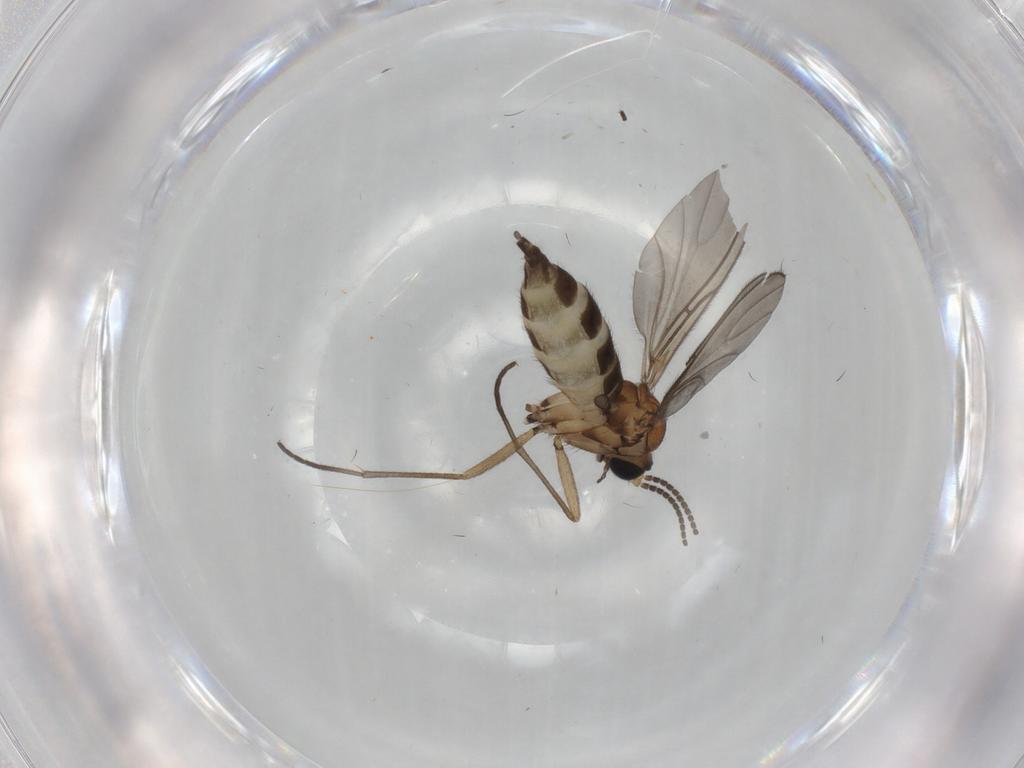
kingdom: Animalia
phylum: Arthropoda
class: Insecta
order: Diptera
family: Sciaridae
